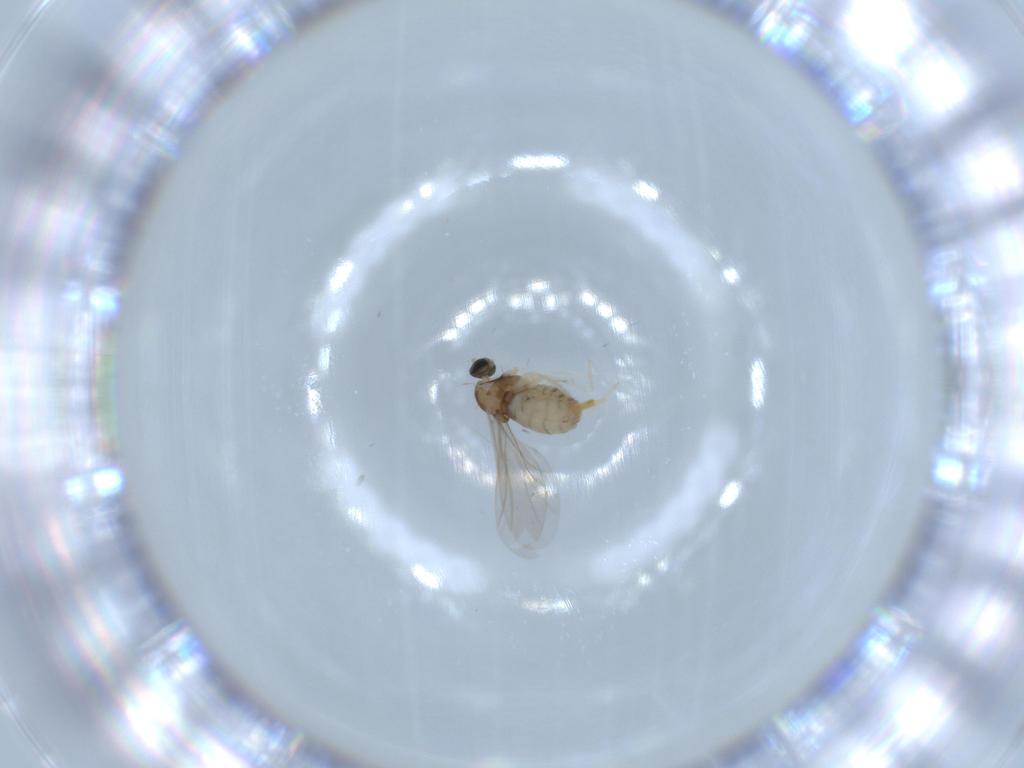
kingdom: Animalia
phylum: Arthropoda
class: Insecta
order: Diptera
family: Cecidomyiidae
